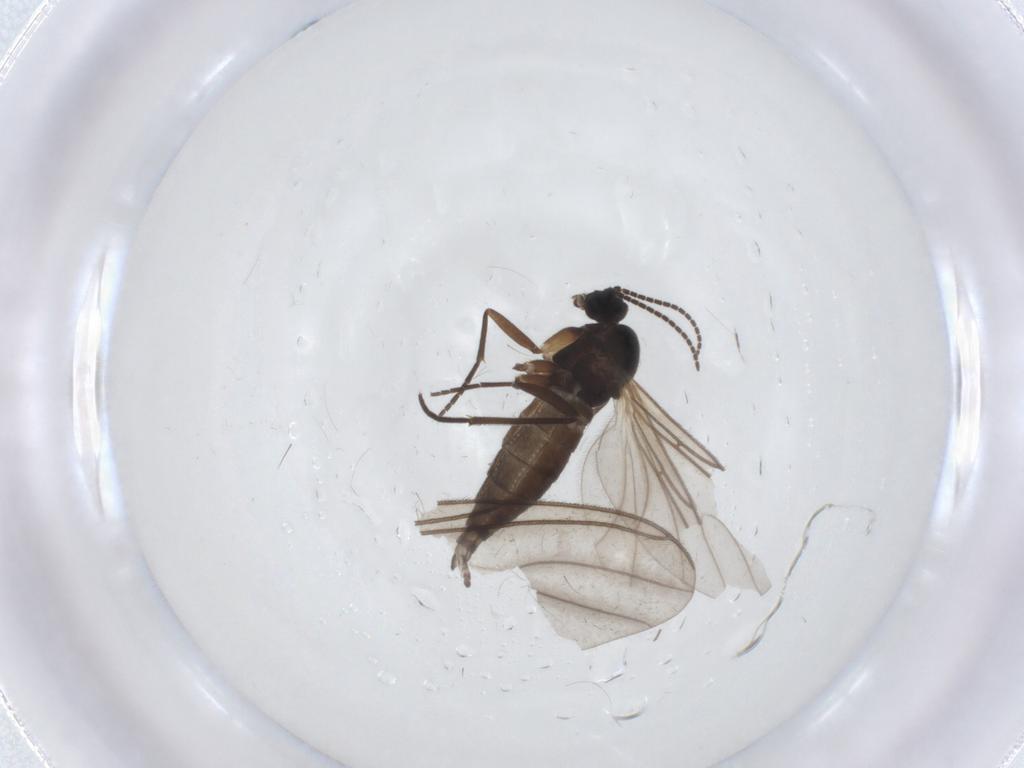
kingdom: Animalia
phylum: Arthropoda
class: Insecta
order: Diptera
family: Sciaridae
